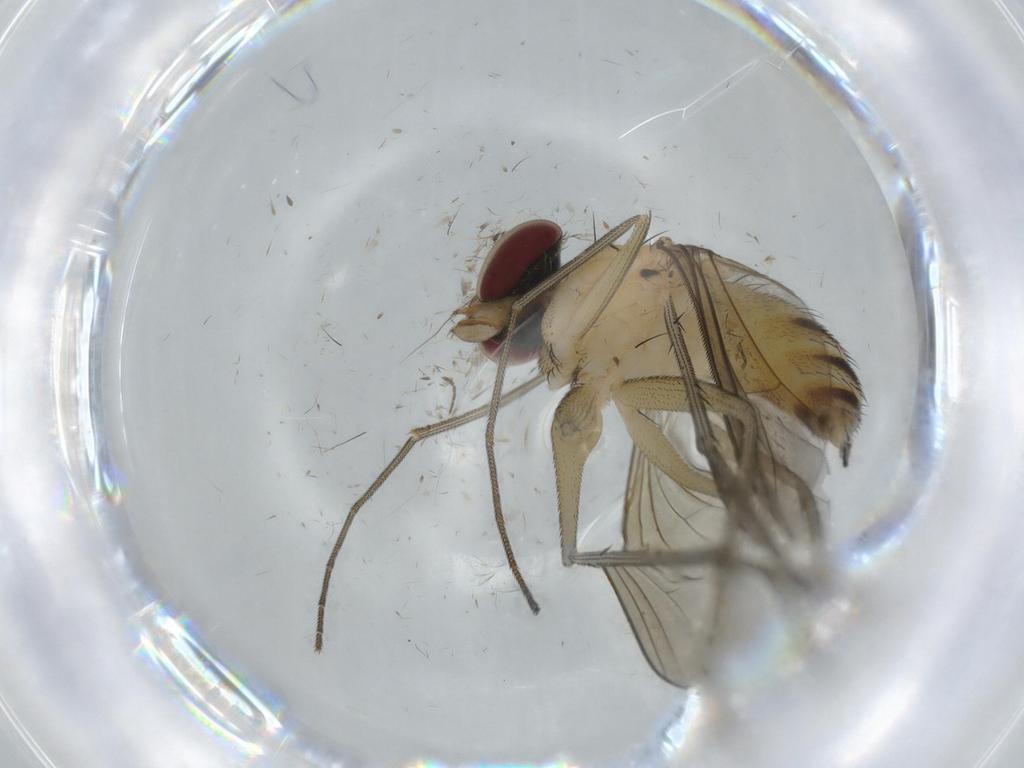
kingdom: Animalia
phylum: Arthropoda
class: Insecta
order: Diptera
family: Dolichopodidae
